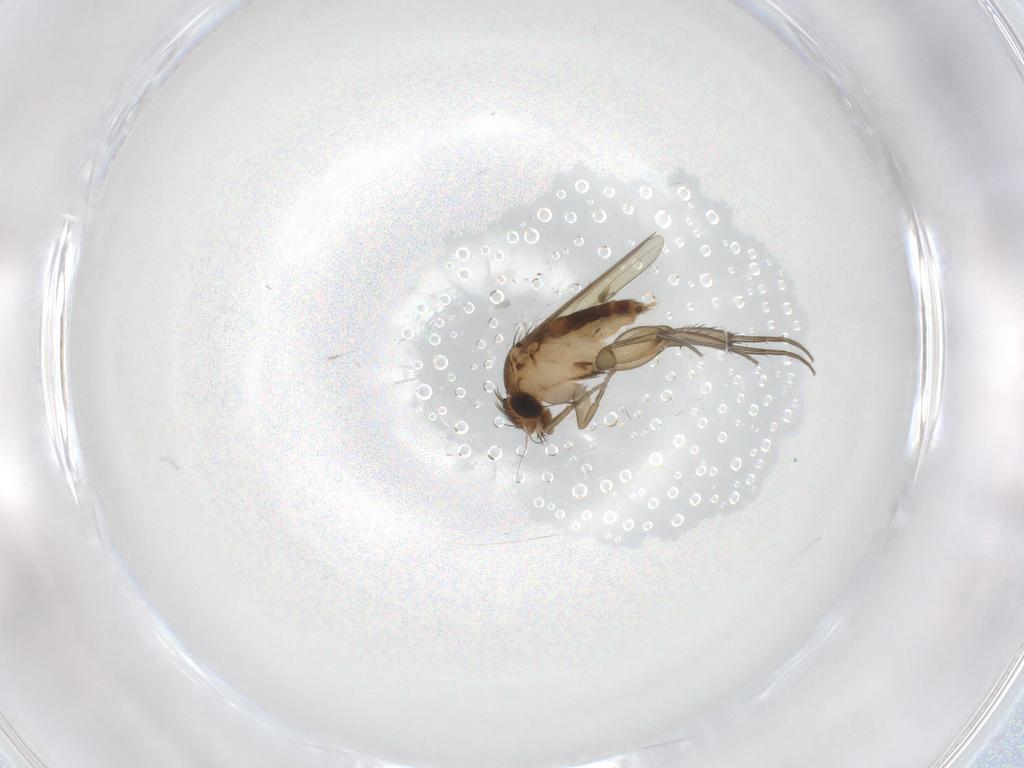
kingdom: Animalia
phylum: Arthropoda
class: Insecta
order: Diptera
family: Phoridae
